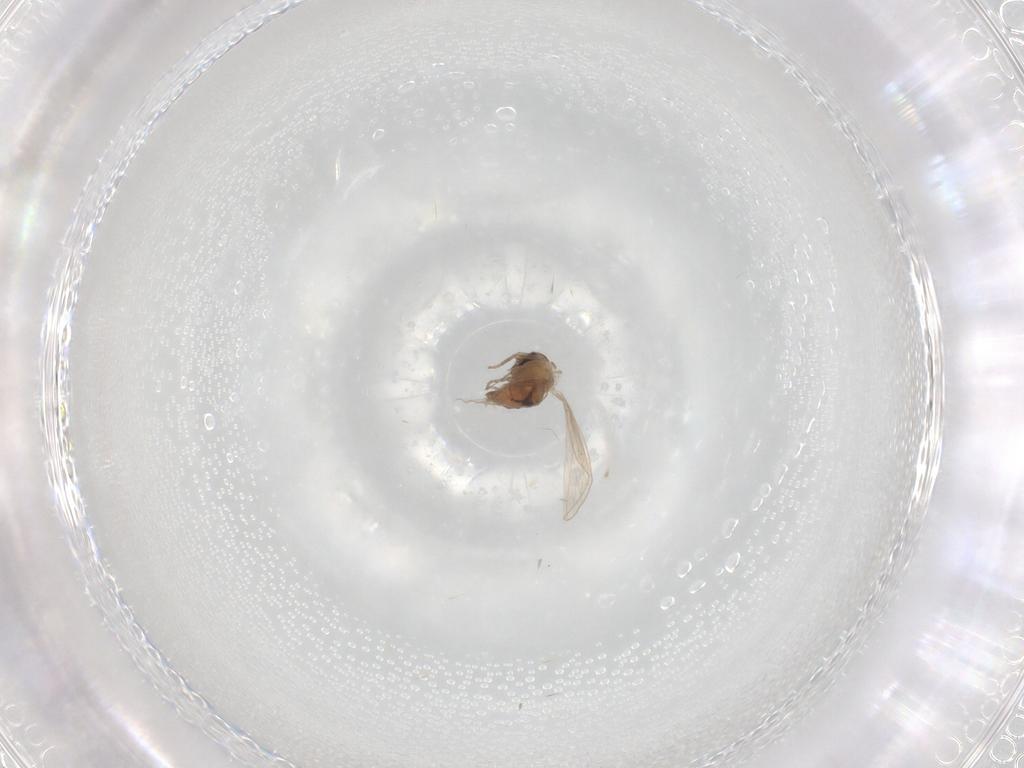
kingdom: Animalia
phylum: Arthropoda
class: Insecta
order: Diptera
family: Psychodidae
